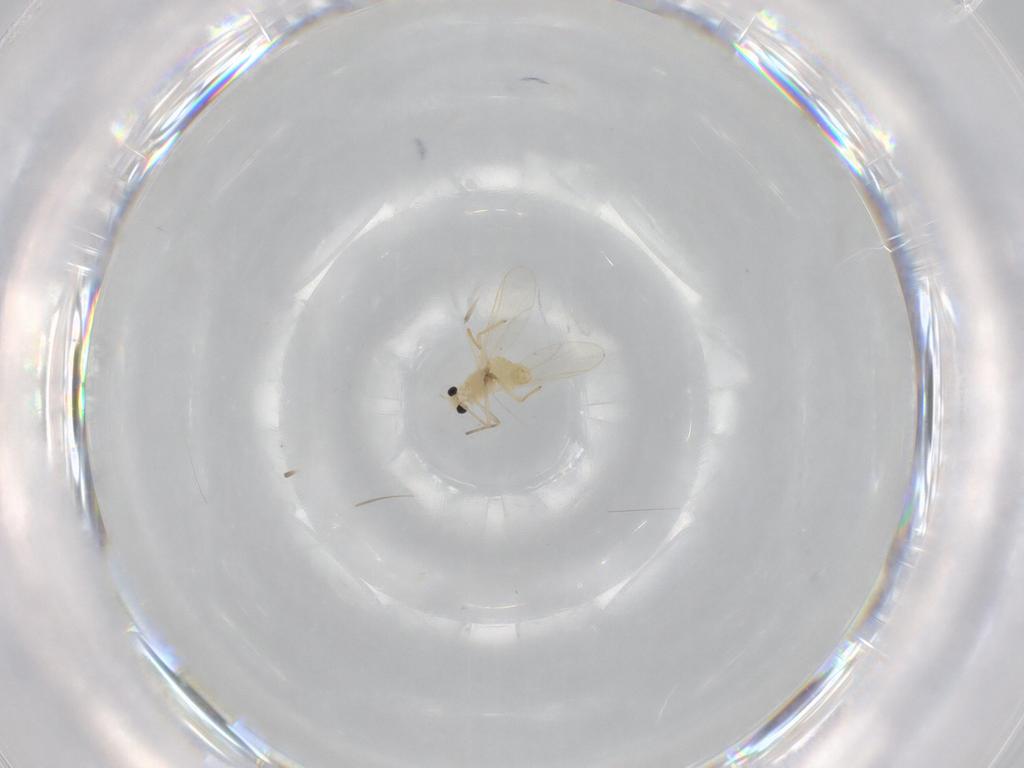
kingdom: Animalia
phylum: Arthropoda
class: Insecta
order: Diptera
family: Chironomidae
